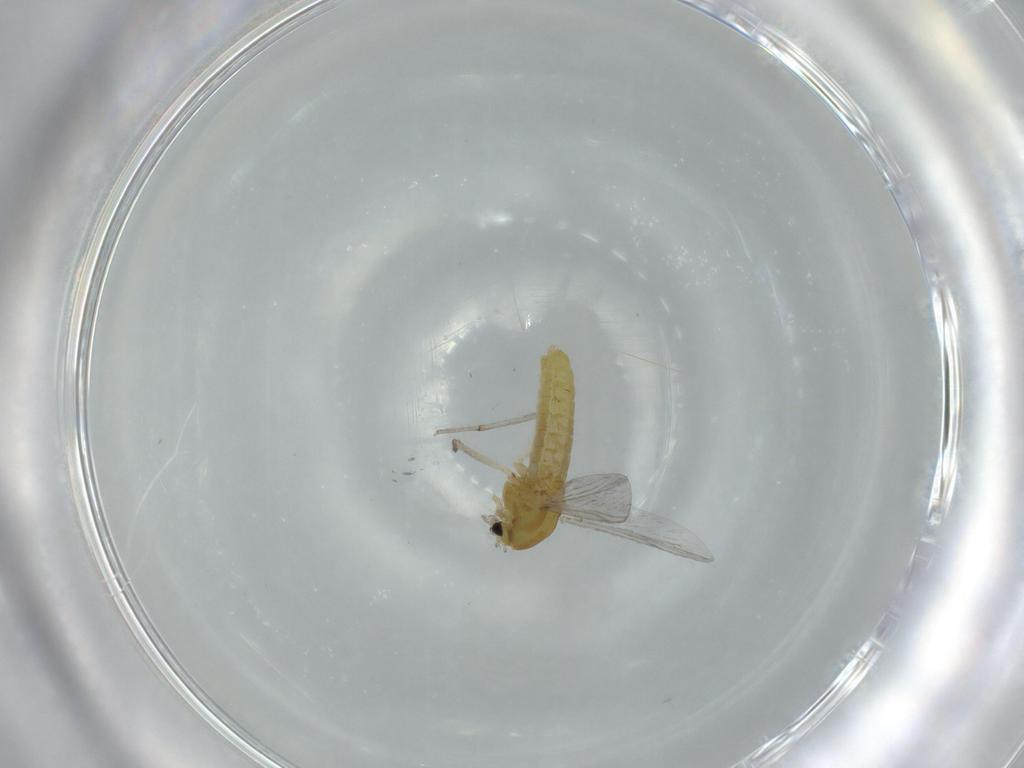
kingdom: Animalia
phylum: Arthropoda
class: Insecta
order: Diptera
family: Chironomidae
